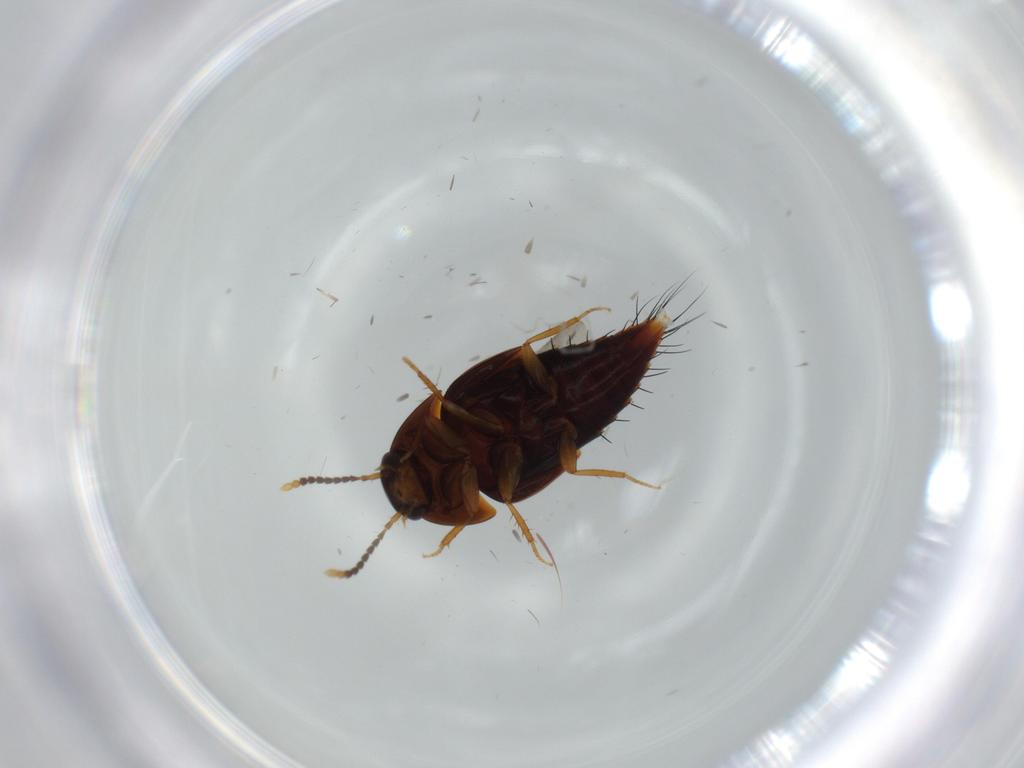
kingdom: Animalia
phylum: Arthropoda
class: Insecta
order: Coleoptera
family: Staphylinidae
